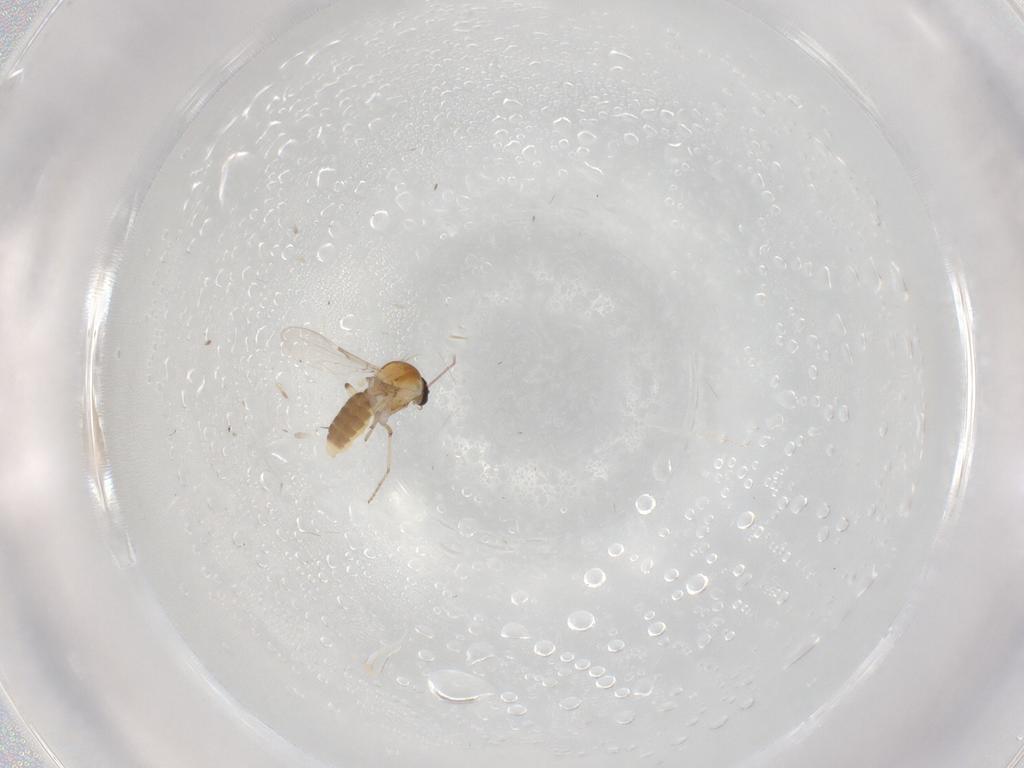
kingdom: Animalia
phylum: Arthropoda
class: Insecta
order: Diptera
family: Ceratopogonidae
